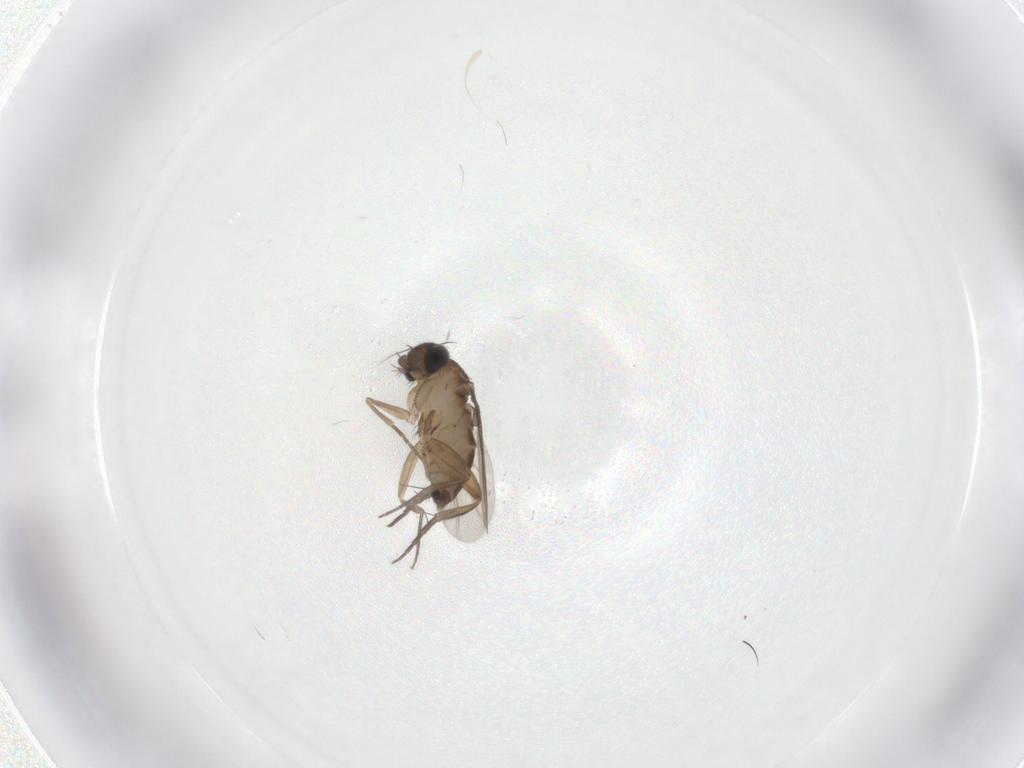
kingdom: Animalia
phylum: Arthropoda
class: Insecta
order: Diptera
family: Phoridae
